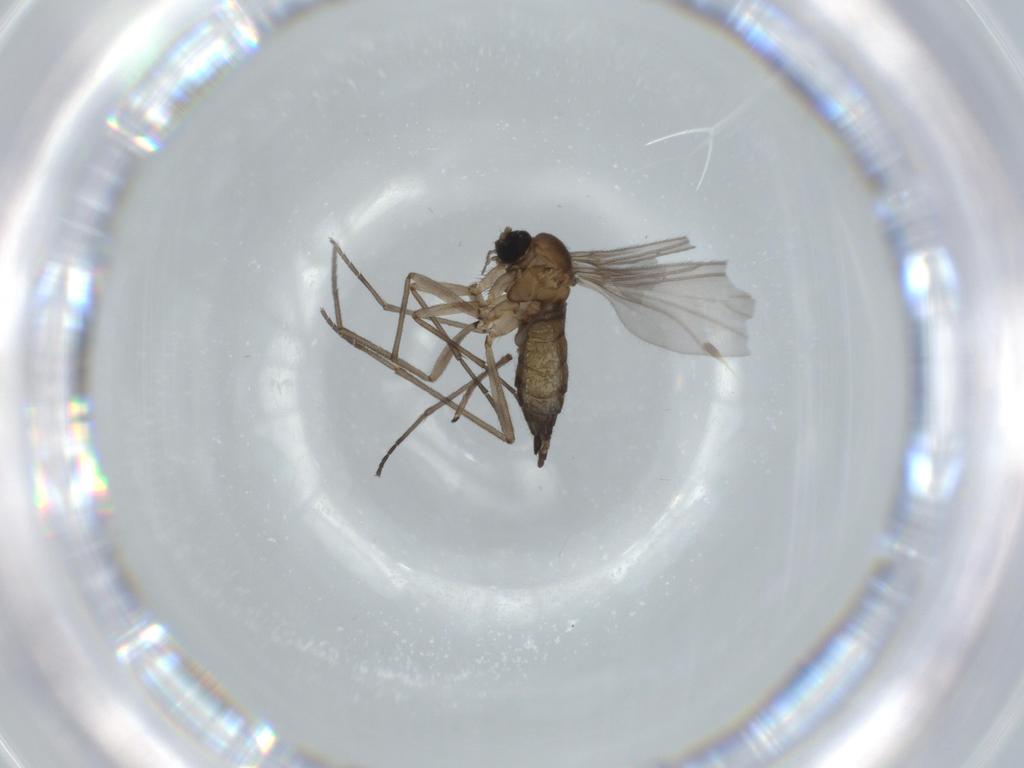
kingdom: Animalia
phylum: Arthropoda
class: Insecta
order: Diptera
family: Sciaridae
